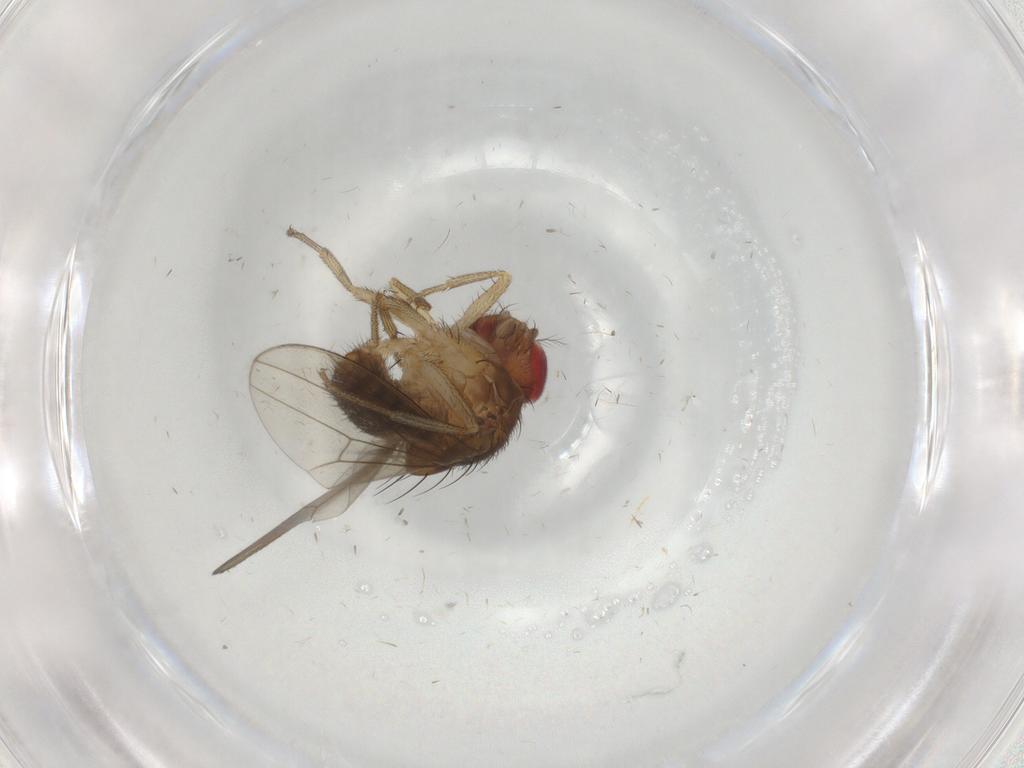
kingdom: Animalia
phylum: Arthropoda
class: Insecta
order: Diptera
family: Drosophilidae
